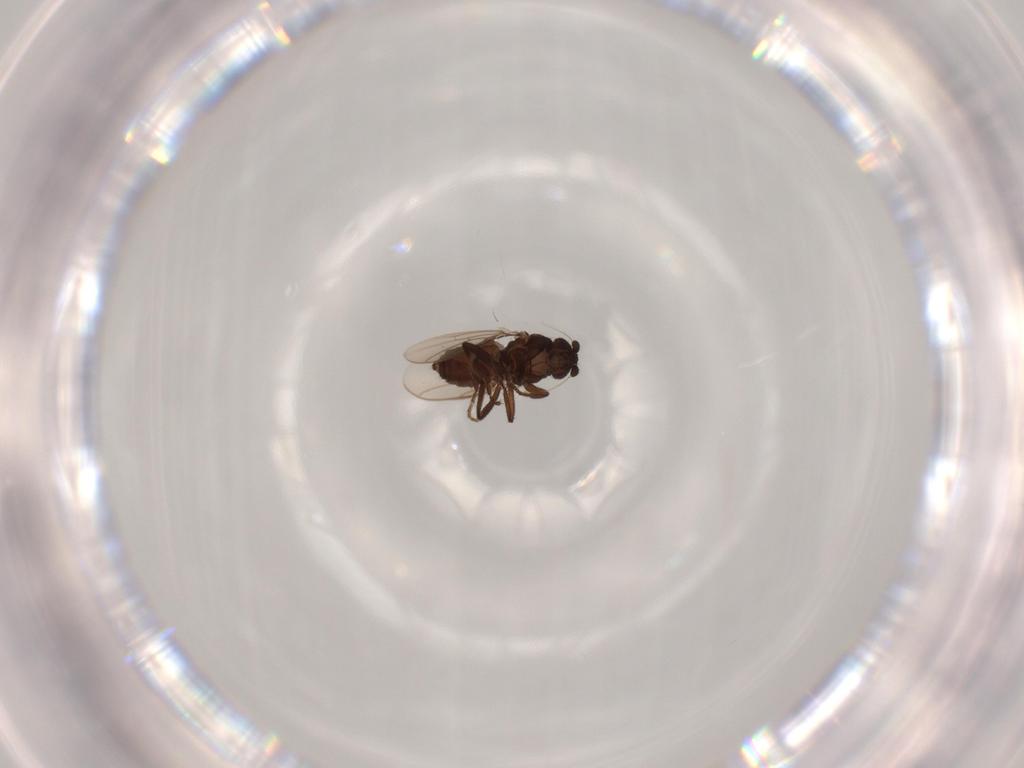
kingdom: Animalia
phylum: Arthropoda
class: Insecta
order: Diptera
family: Sphaeroceridae
